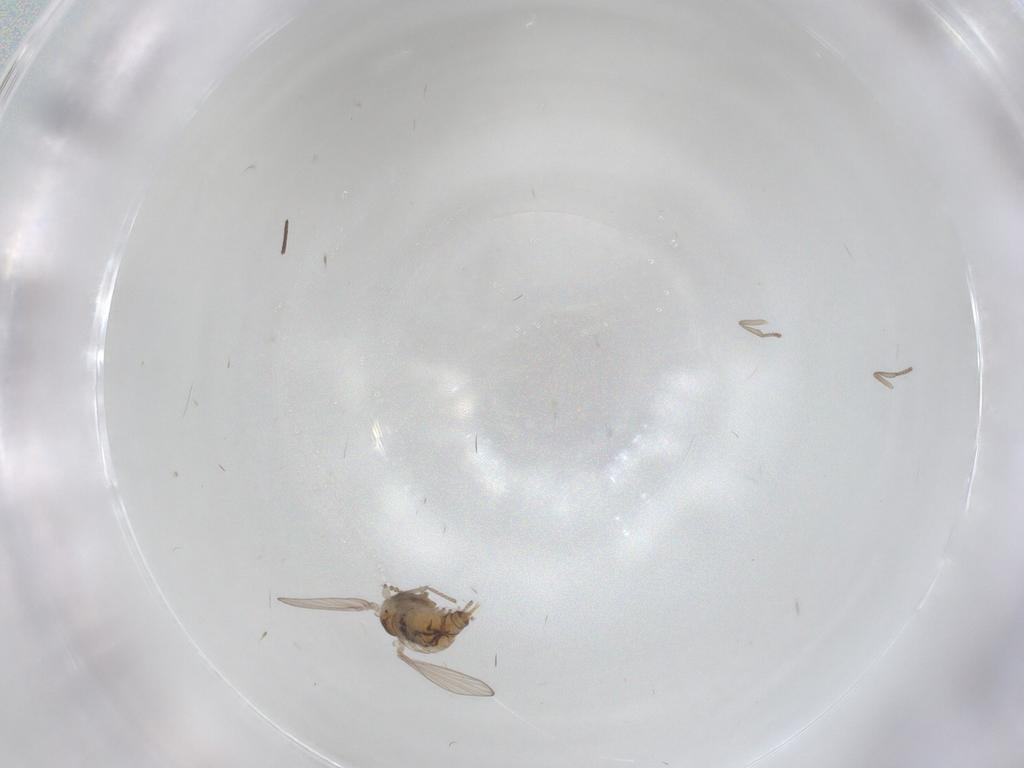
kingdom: Animalia
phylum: Arthropoda
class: Insecta
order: Diptera
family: Psychodidae
